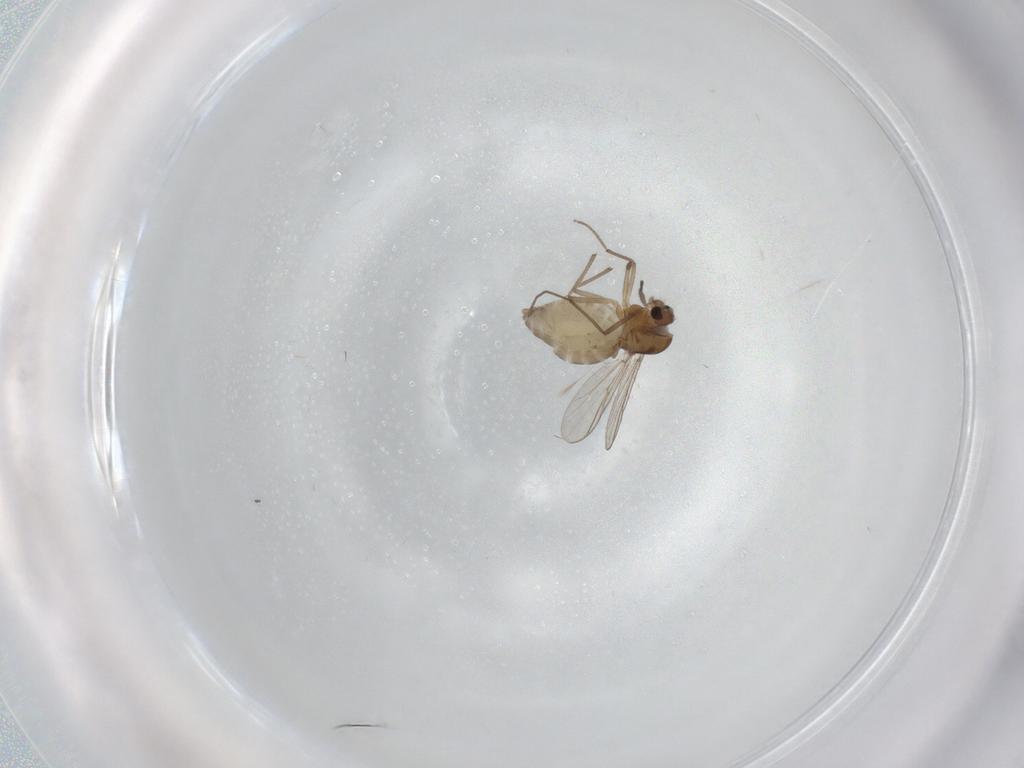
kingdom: Animalia
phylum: Arthropoda
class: Insecta
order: Diptera
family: Chironomidae
